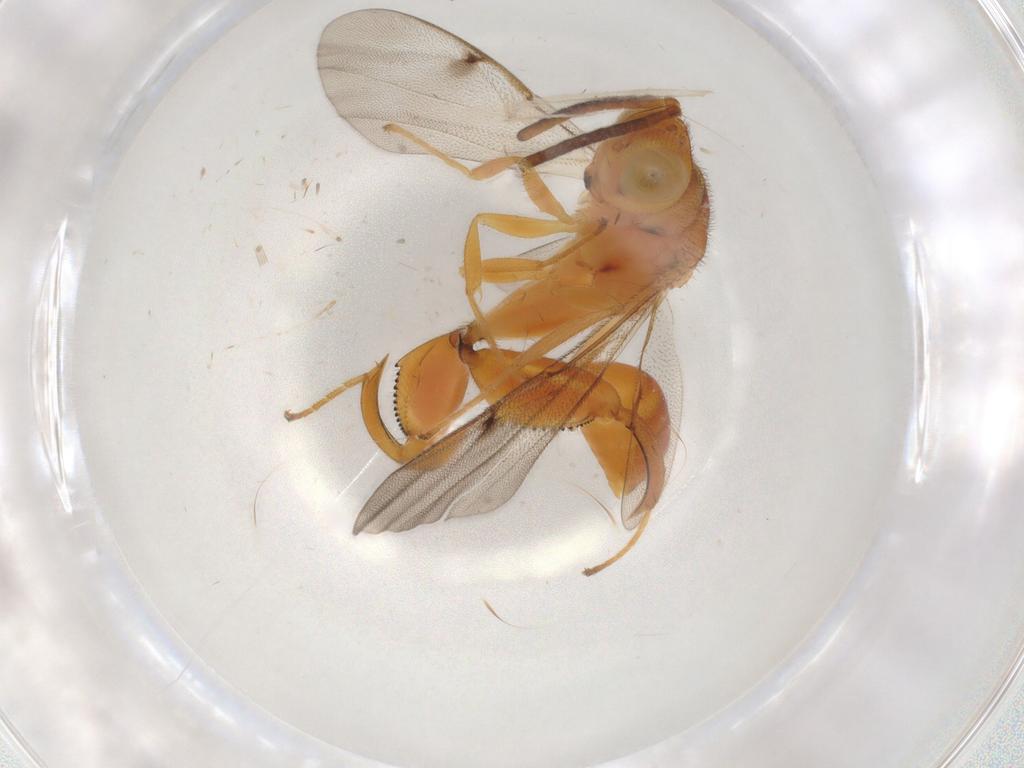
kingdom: Animalia
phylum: Arthropoda
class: Insecta
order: Hymenoptera
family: Chalcididae
